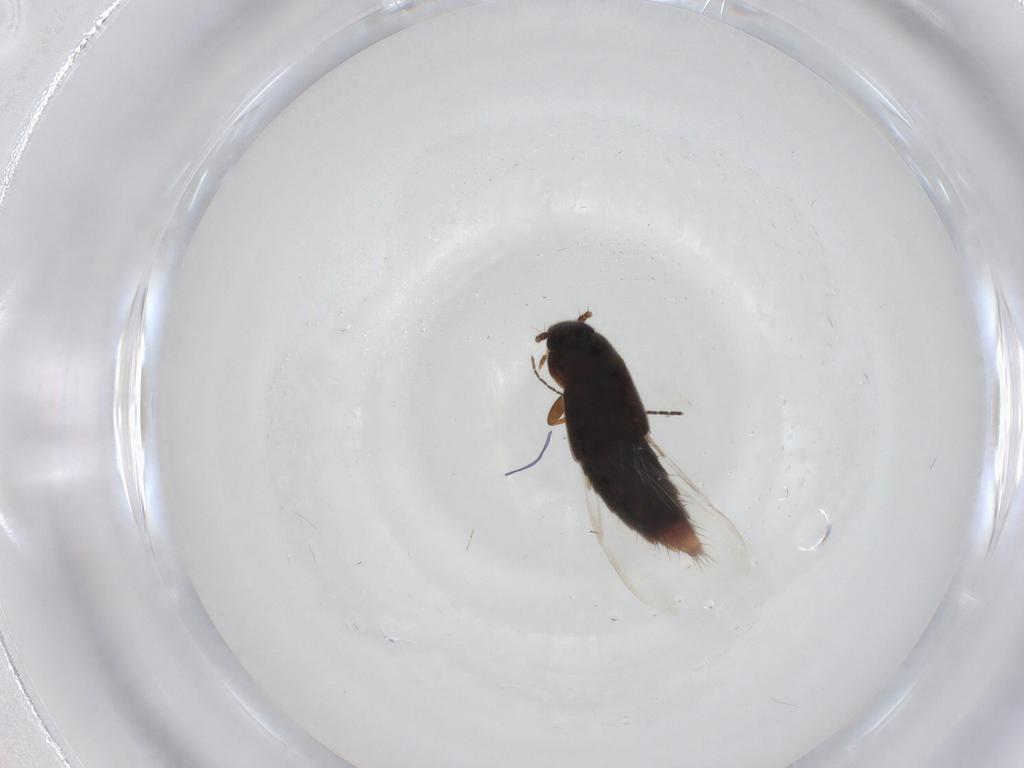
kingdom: Animalia
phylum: Arthropoda
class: Insecta
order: Coleoptera
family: Staphylinidae
